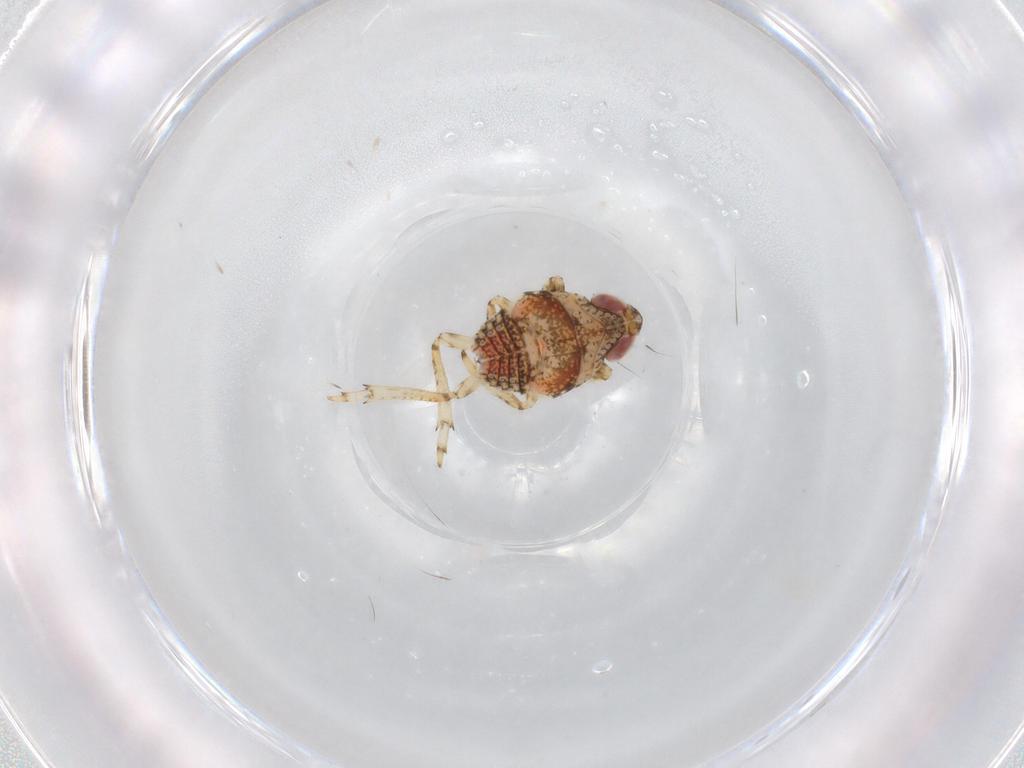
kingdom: Animalia
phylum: Arthropoda
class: Insecta
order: Hemiptera
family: Issidae
